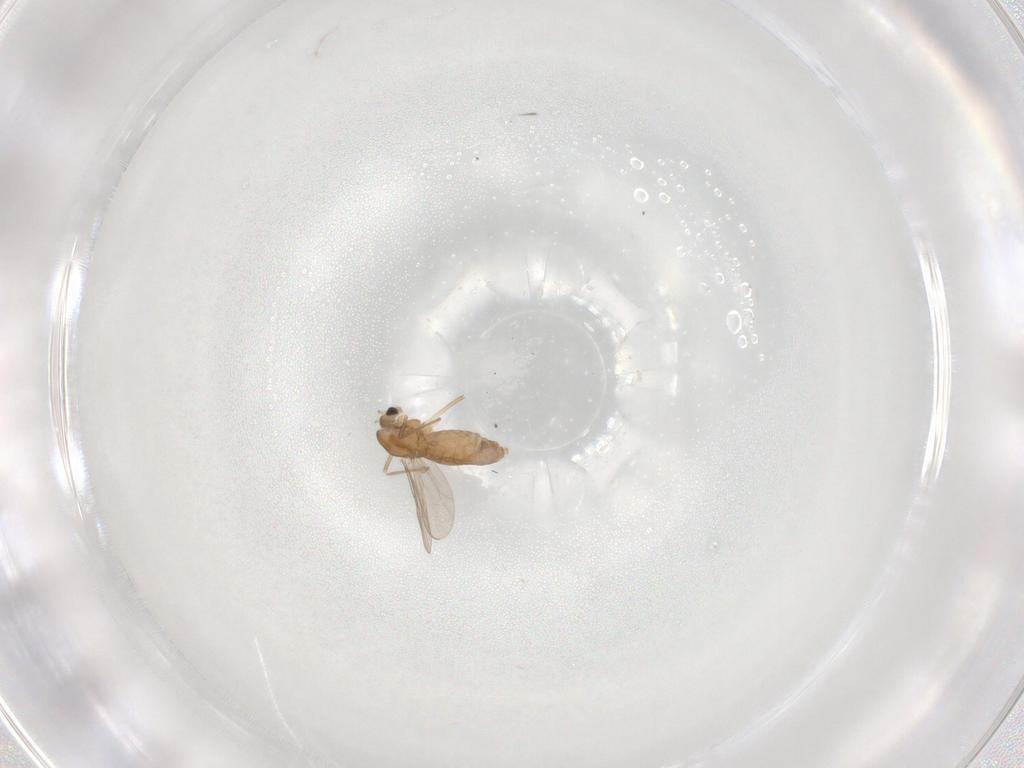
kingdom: Animalia
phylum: Arthropoda
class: Insecta
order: Diptera
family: Chironomidae
